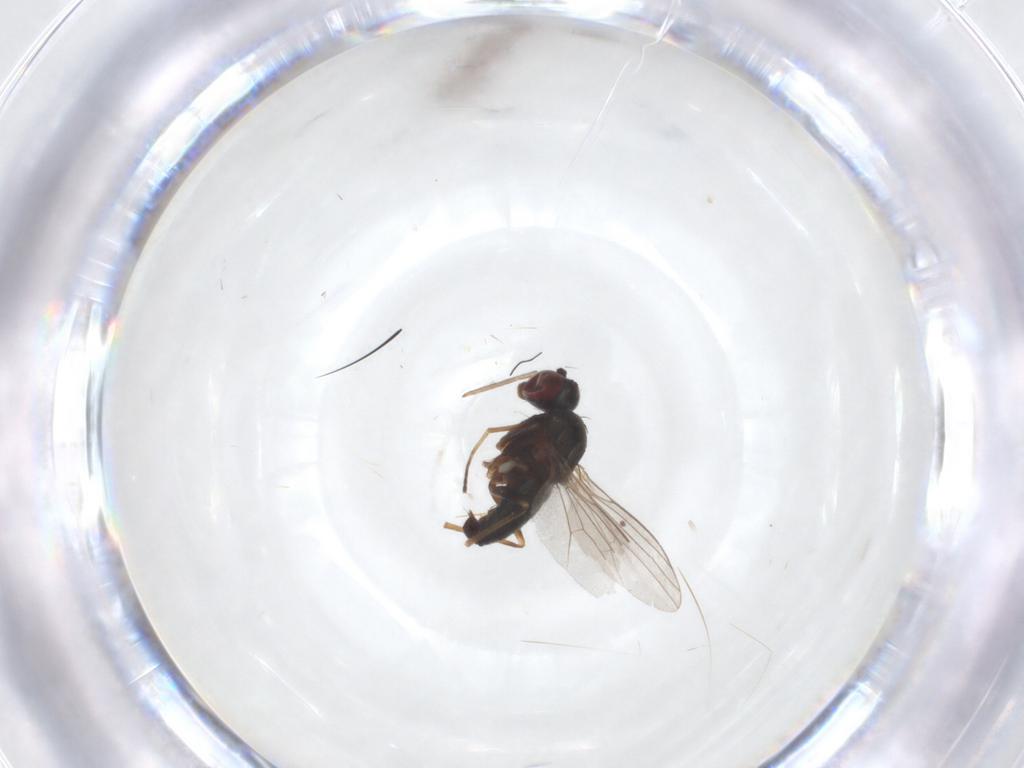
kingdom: Animalia
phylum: Arthropoda
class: Insecta
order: Diptera
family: Sciaridae
